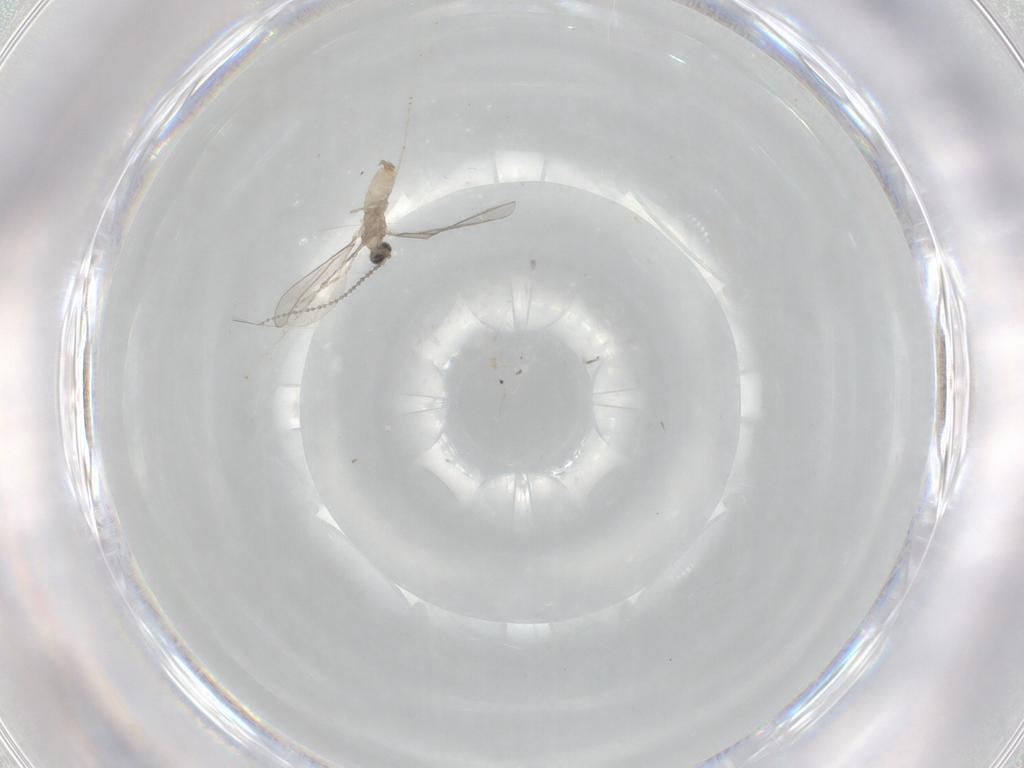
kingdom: Animalia
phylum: Arthropoda
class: Insecta
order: Diptera
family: Cecidomyiidae
